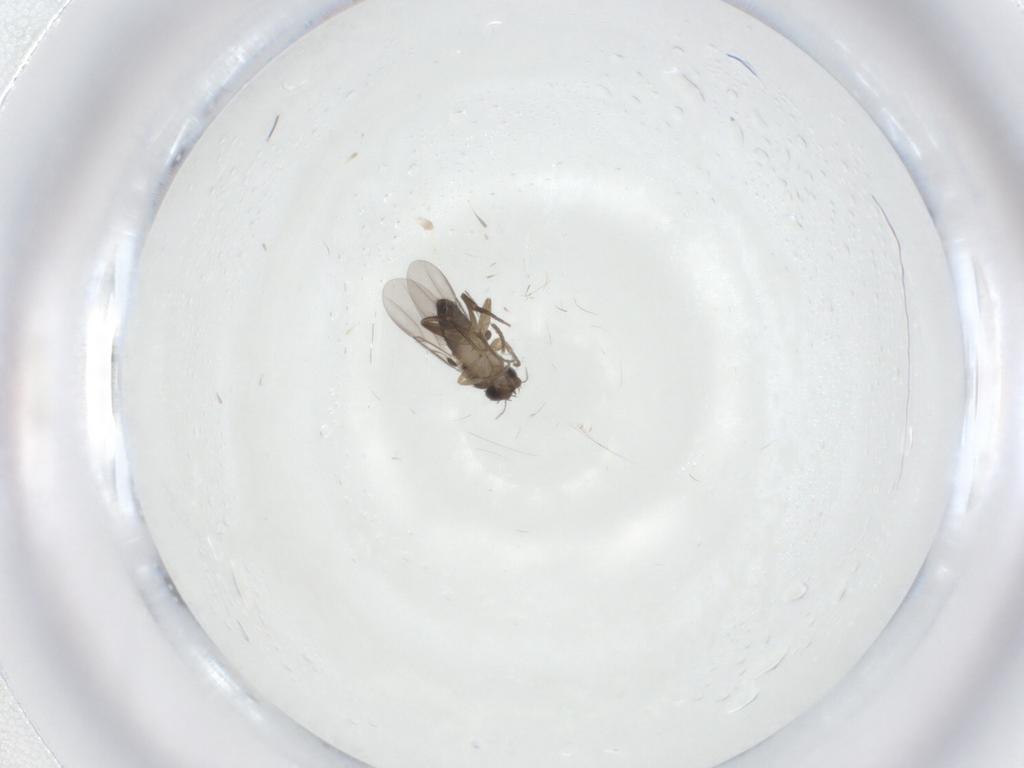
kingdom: Animalia
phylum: Arthropoda
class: Insecta
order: Diptera
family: Phoridae
